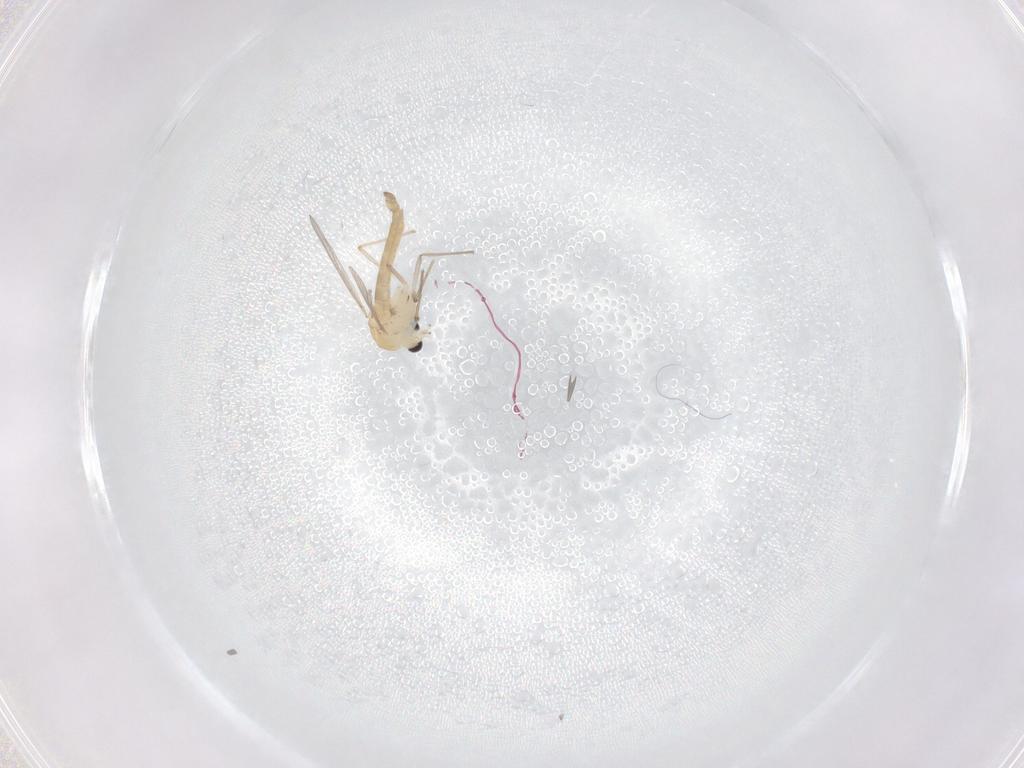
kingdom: Animalia
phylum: Arthropoda
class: Insecta
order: Diptera
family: Chironomidae
